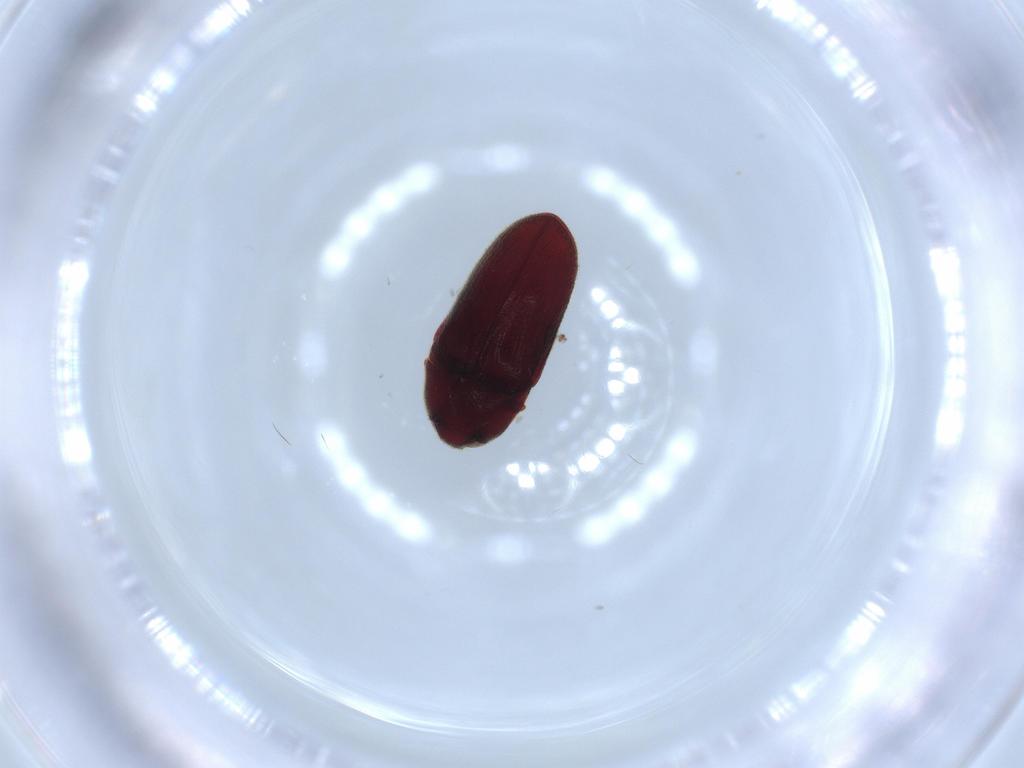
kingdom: Animalia
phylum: Arthropoda
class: Insecta
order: Coleoptera
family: Throscidae
